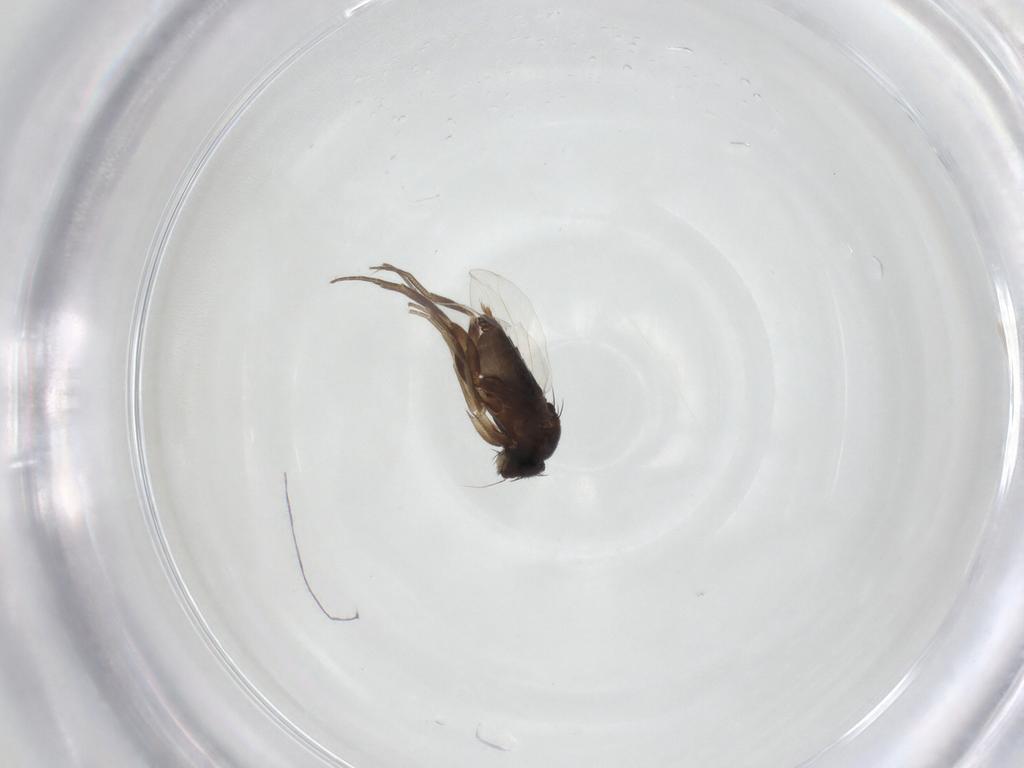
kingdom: Animalia
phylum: Arthropoda
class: Insecta
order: Diptera
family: Phoridae
